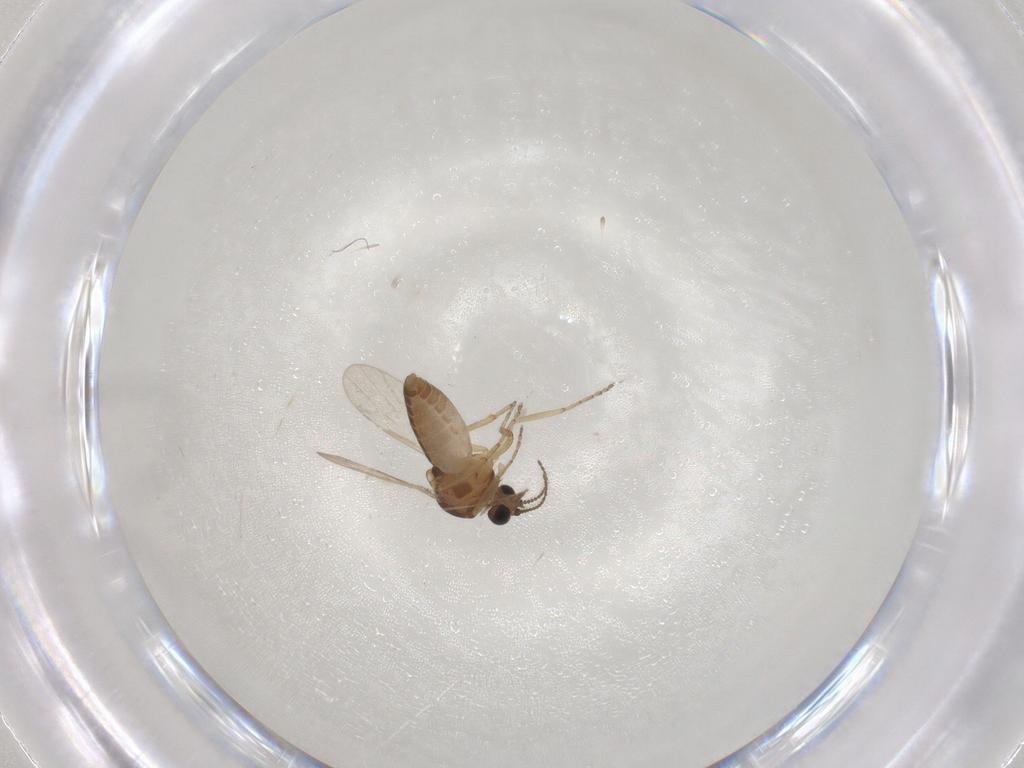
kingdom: Animalia
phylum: Arthropoda
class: Insecta
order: Diptera
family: Ceratopogonidae
